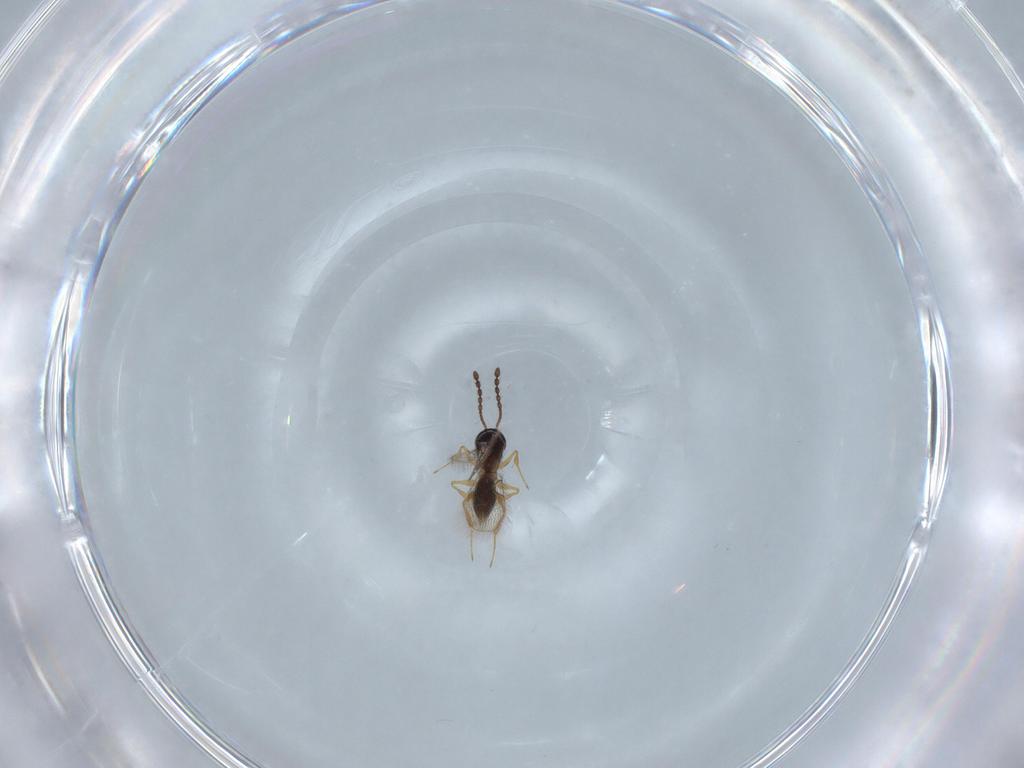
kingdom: Animalia
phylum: Arthropoda
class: Insecta
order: Hymenoptera
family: Figitidae
